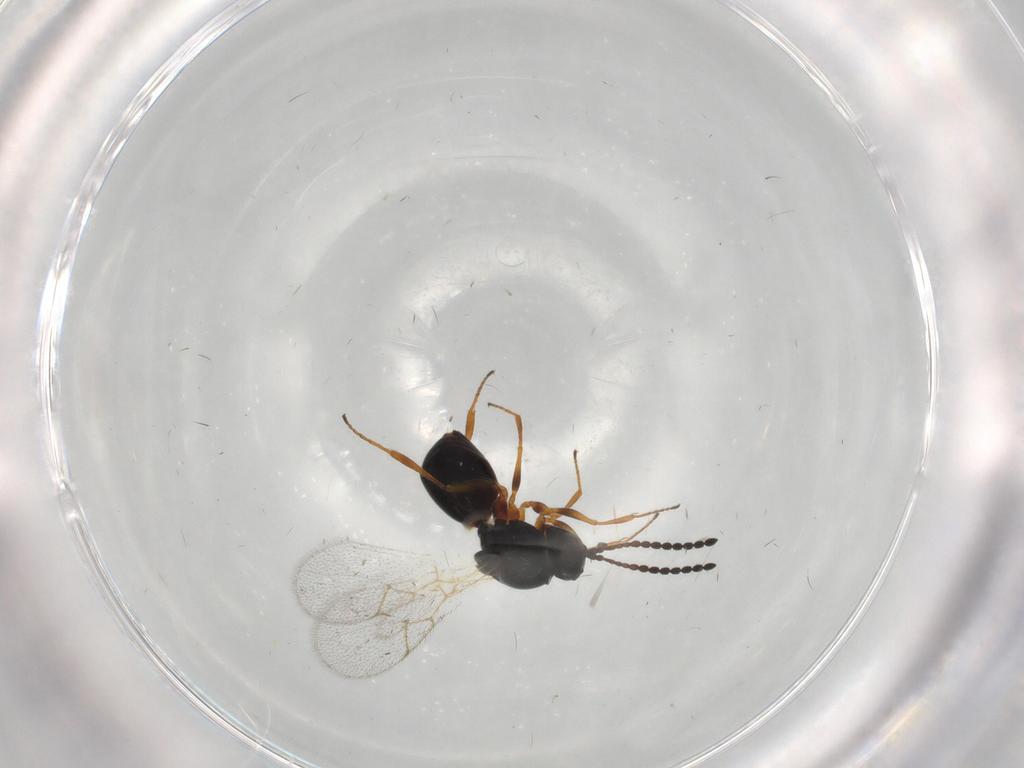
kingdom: Animalia
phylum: Arthropoda
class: Insecta
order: Hymenoptera
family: Figitidae
